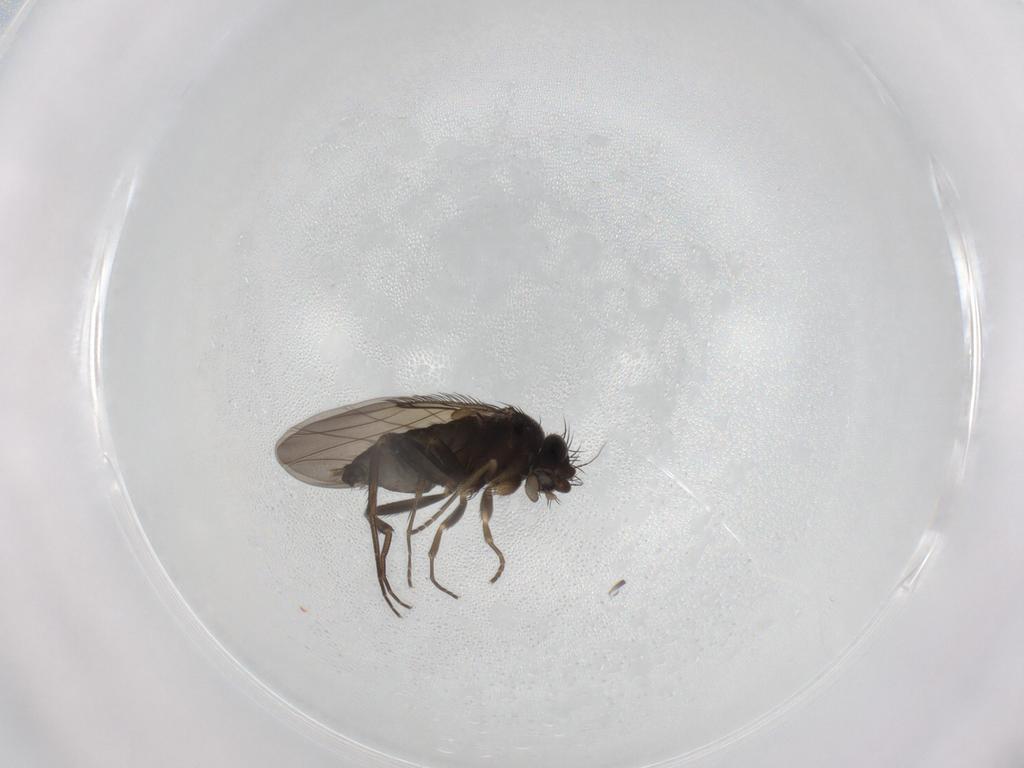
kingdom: Animalia
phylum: Arthropoda
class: Insecta
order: Diptera
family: Phoridae
